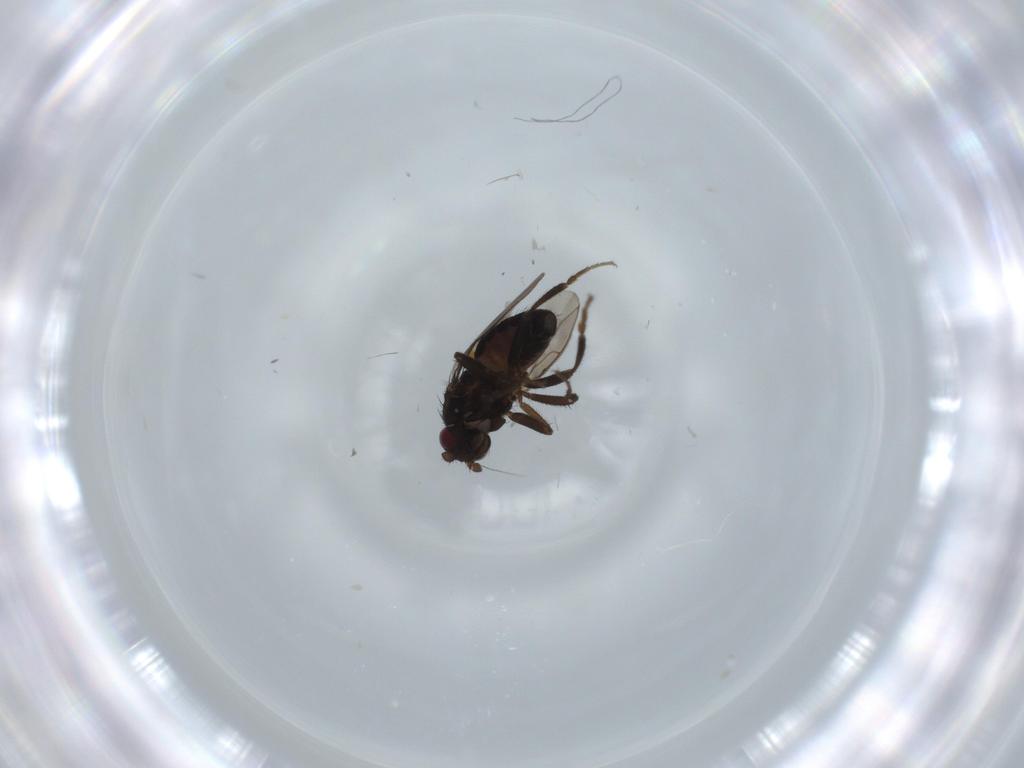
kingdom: Animalia
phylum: Arthropoda
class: Insecta
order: Diptera
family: Sphaeroceridae
